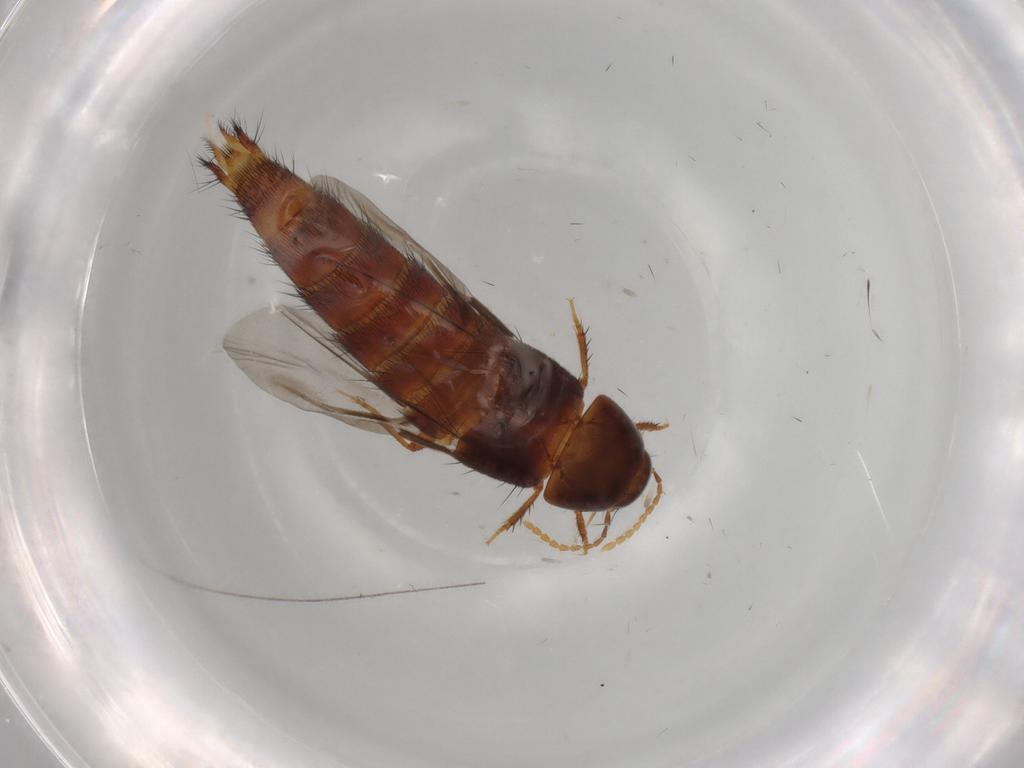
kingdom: Animalia
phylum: Arthropoda
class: Insecta
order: Coleoptera
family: Staphylinidae
